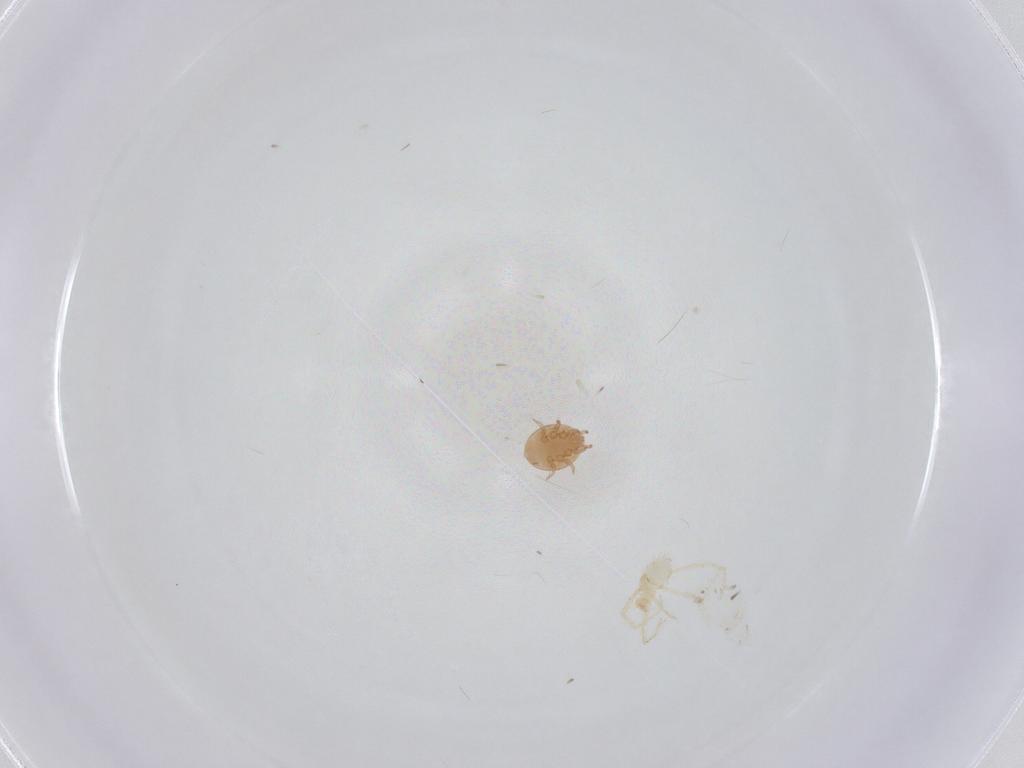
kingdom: Animalia
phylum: Arthropoda
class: Arachnida
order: Trombidiformes
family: Erythraeidae
